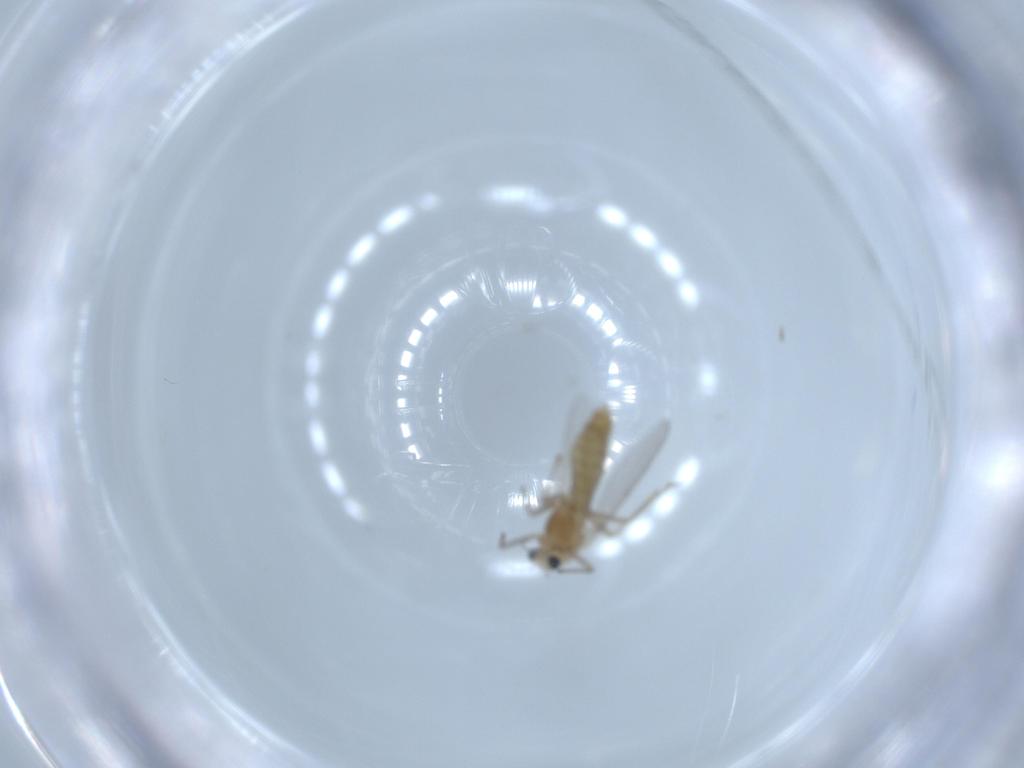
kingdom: Animalia
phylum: Arthropoda
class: Insecta
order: Diptera
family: Chironomidae
